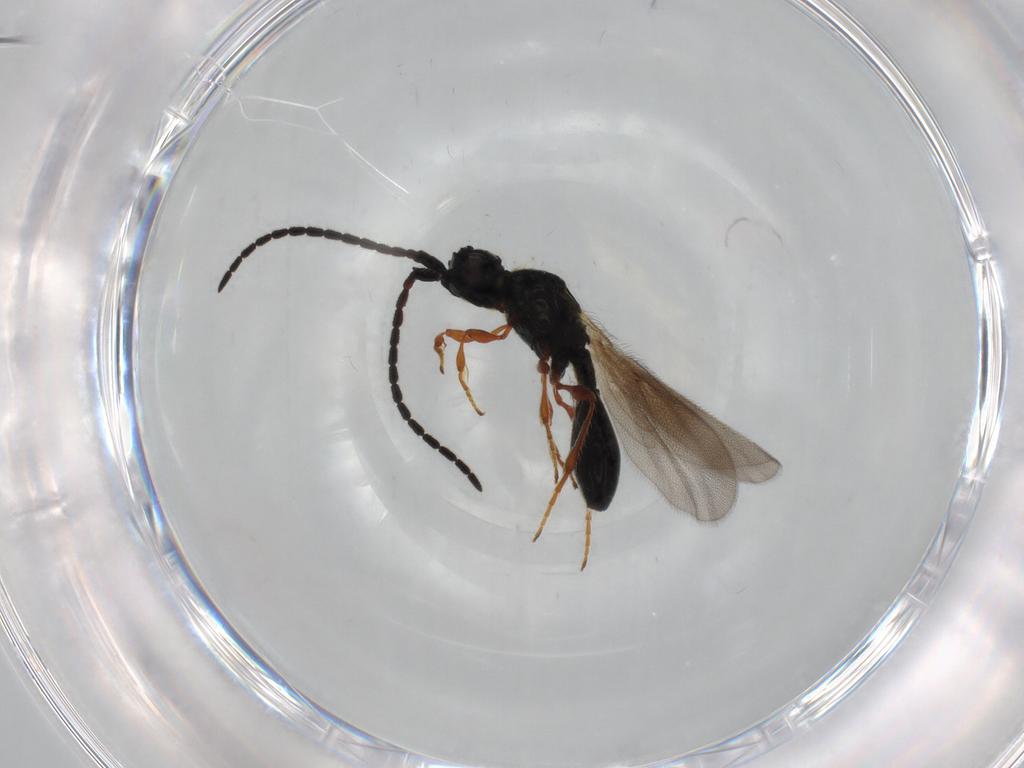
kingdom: Animalia
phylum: Arthropoda
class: Insecta
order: Hymenoptera
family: Diapriidae
